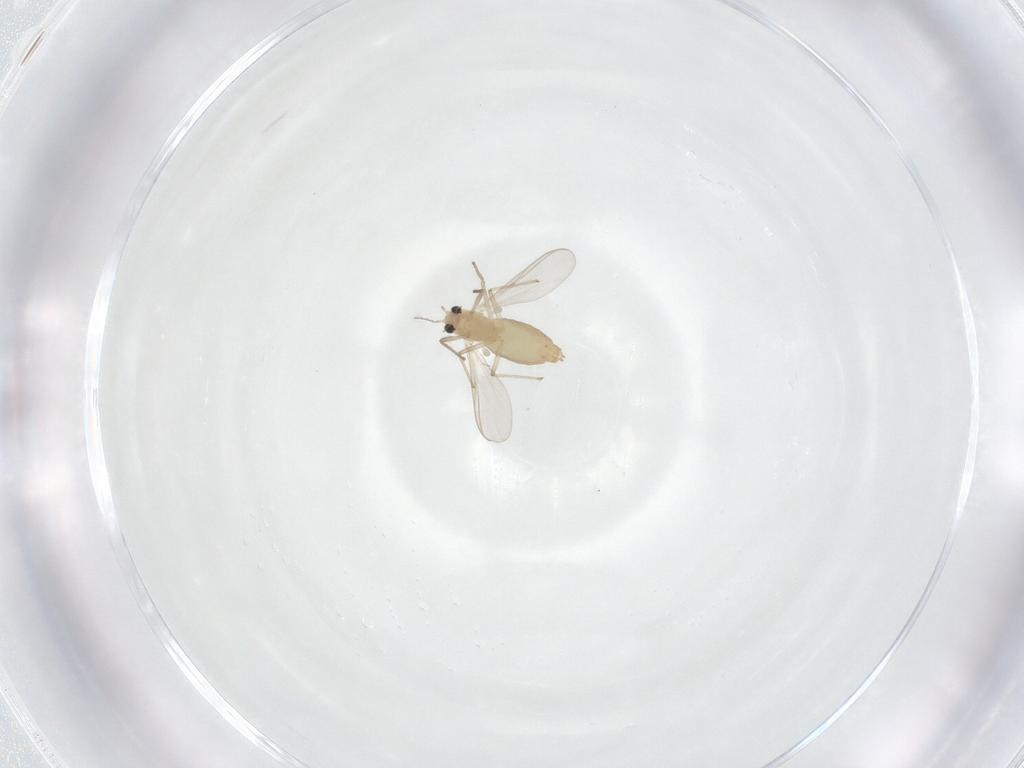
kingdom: Animalia
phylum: Arthropoda
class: Insecta
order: Diptera
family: Chironomidae
